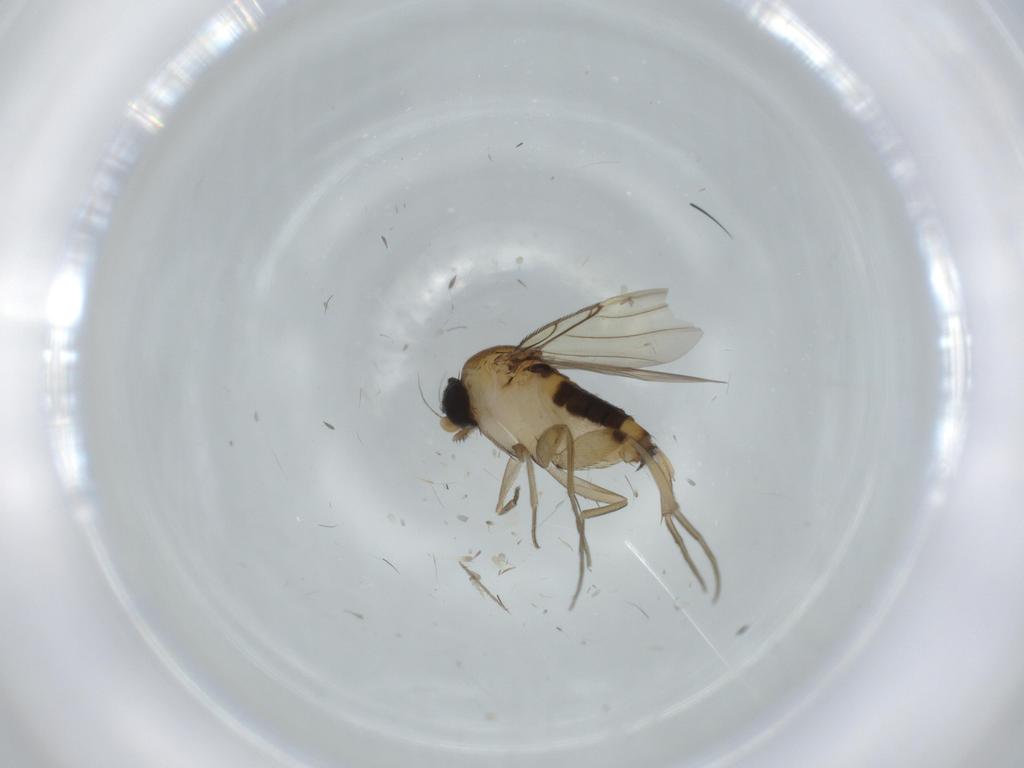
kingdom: Animalia
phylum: Arthropoda
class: Insecta
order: Diptera
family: Phoridae
